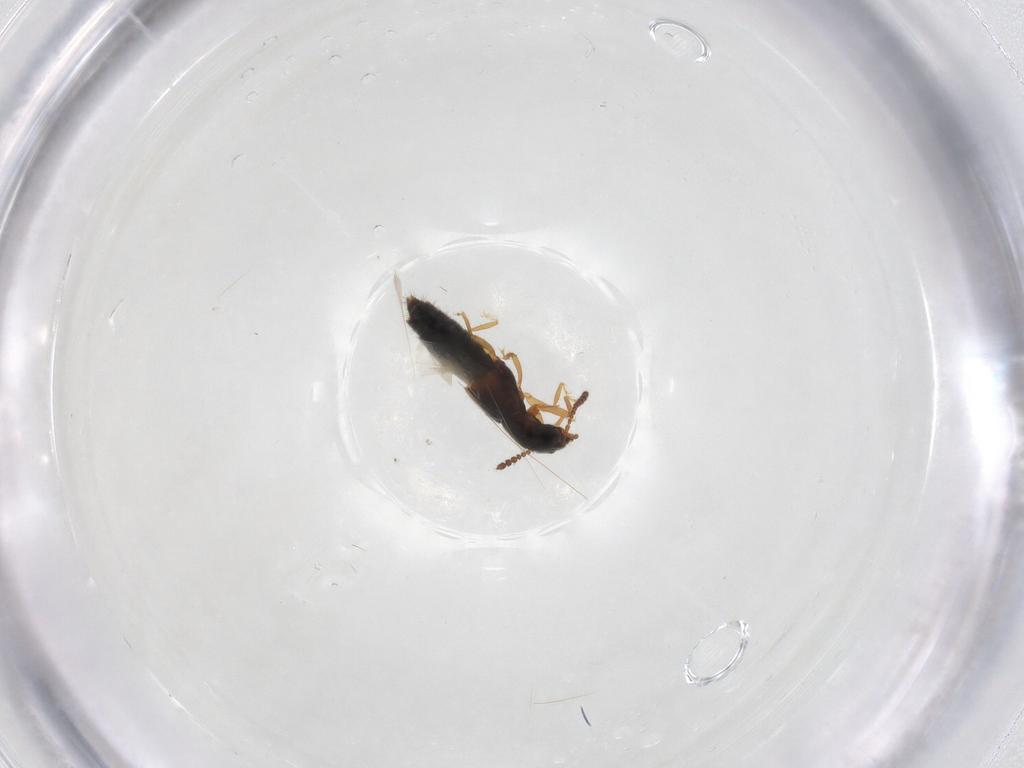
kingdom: Animalia
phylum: Arthropoda
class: Insecta
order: Coleoptera
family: Staphylinidae
